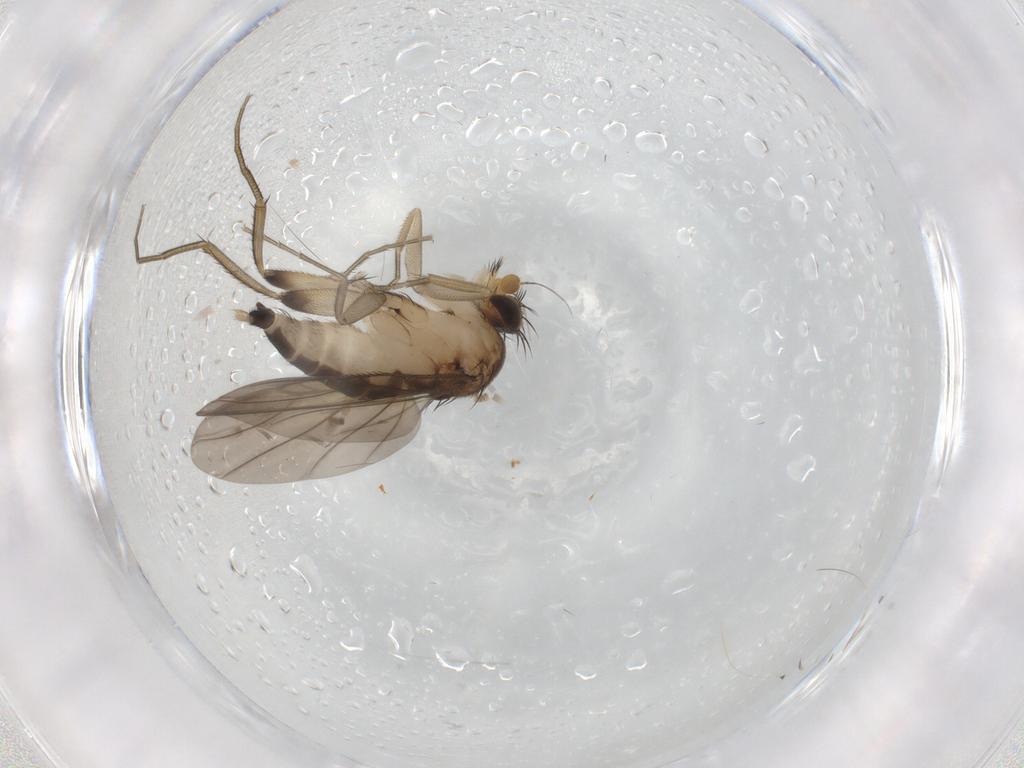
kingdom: Animalia
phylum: Arthropoda
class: Insecta
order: Diptera
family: Phoridae
